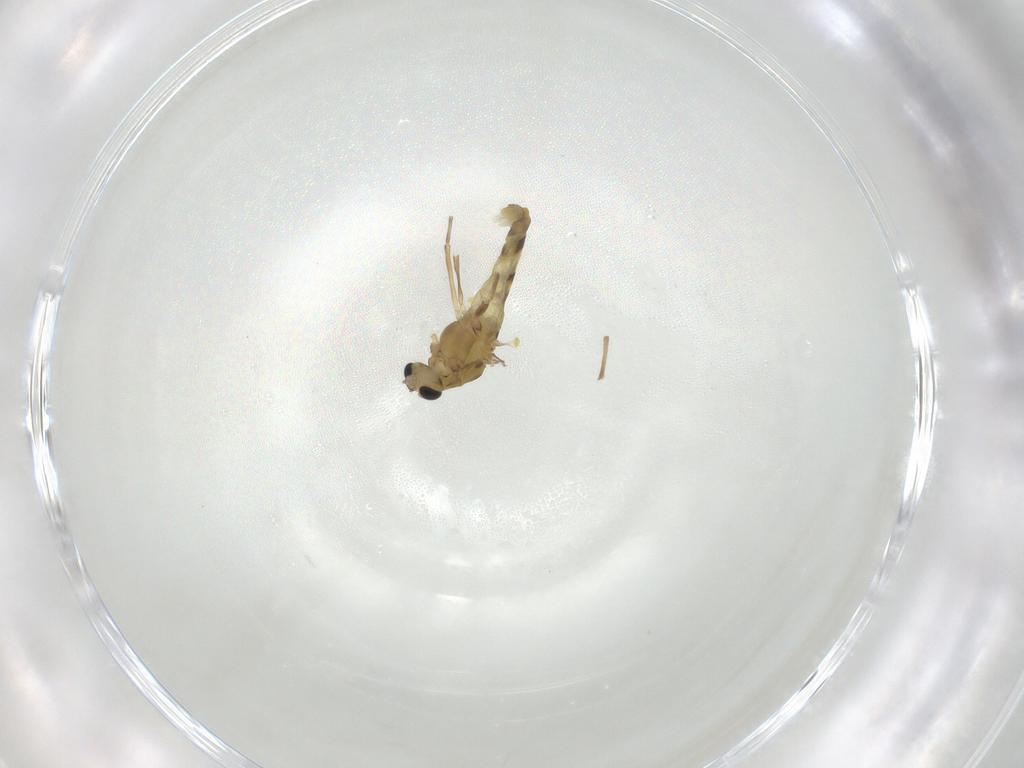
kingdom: Animalia
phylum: Arthropoda
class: Insecta
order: Diptera
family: Chironomidae
